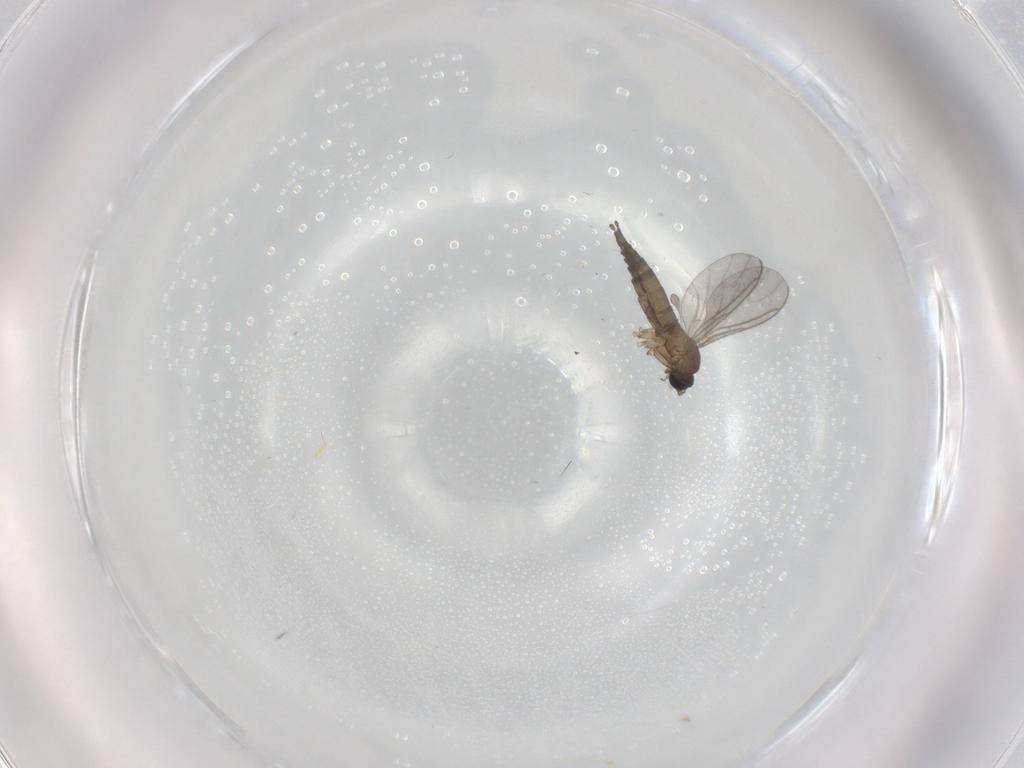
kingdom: Animalia
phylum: Arthropoda
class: Insecta
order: Diptera
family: Sciaridae
